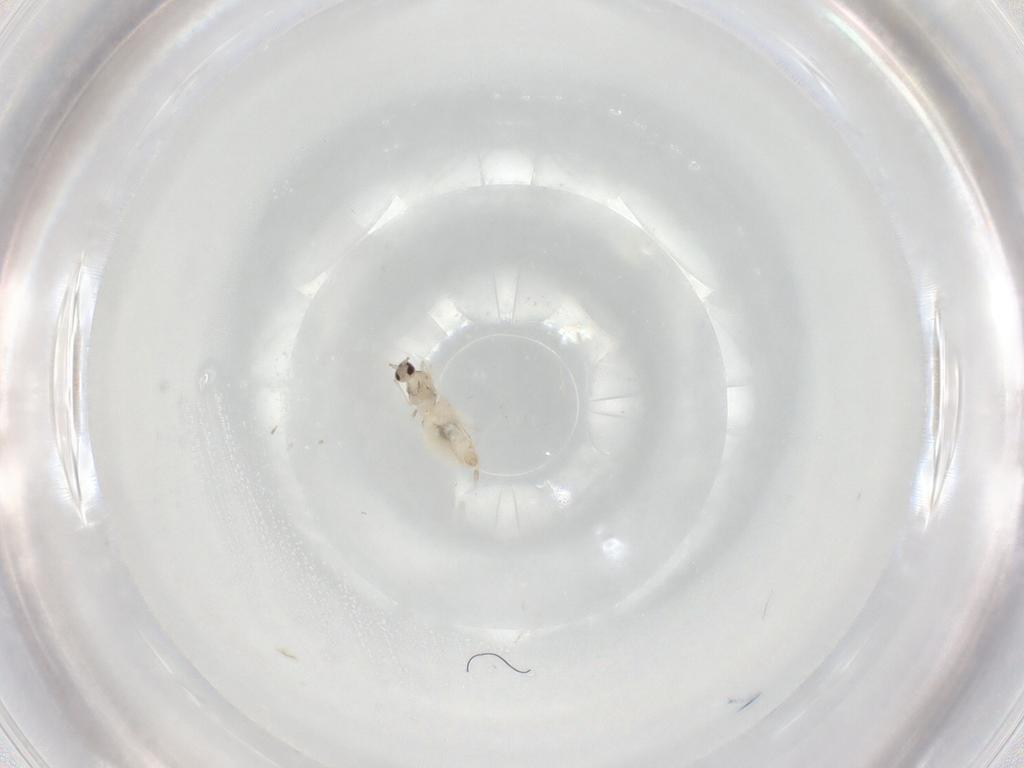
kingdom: Animalia
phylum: Arthropoda
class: Insecta
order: Diptera
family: Cecidomyiidae
